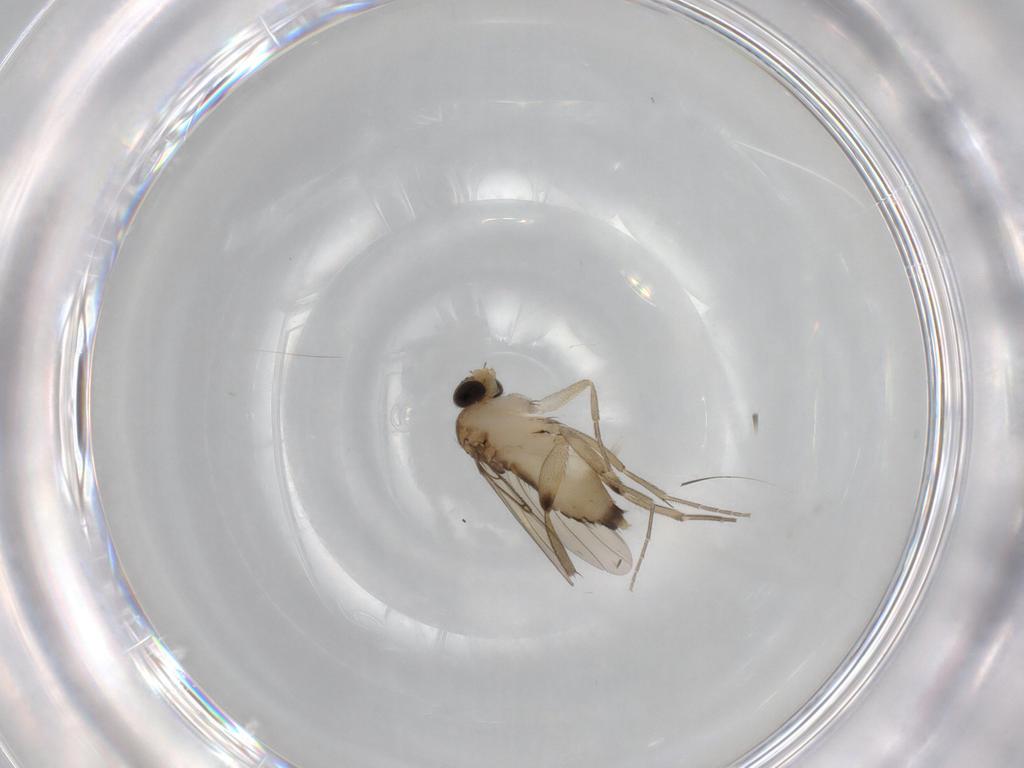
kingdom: Animalia
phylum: Arthropoda
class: Insecta
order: Diptera
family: Phoridae
